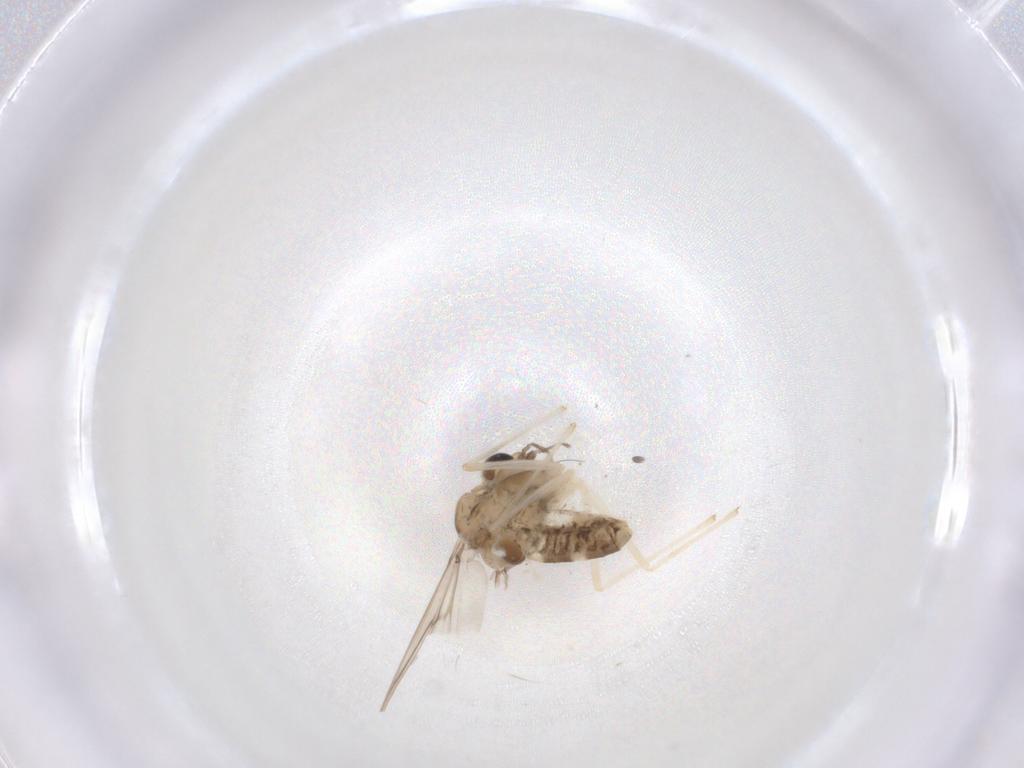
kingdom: Animalia
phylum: Arthropoda
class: Insecta
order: Diptera
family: Chironomidae
